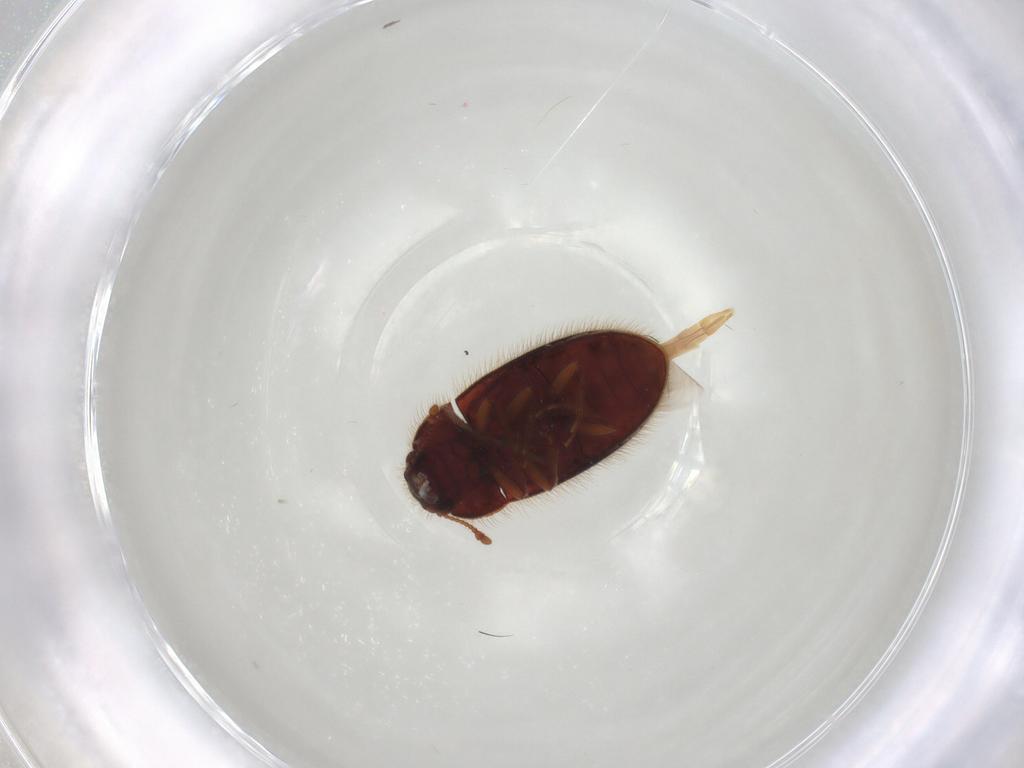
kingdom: Animalia
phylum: Arthropoda
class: Insecta
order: Coleoptera
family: Biphyllidae
